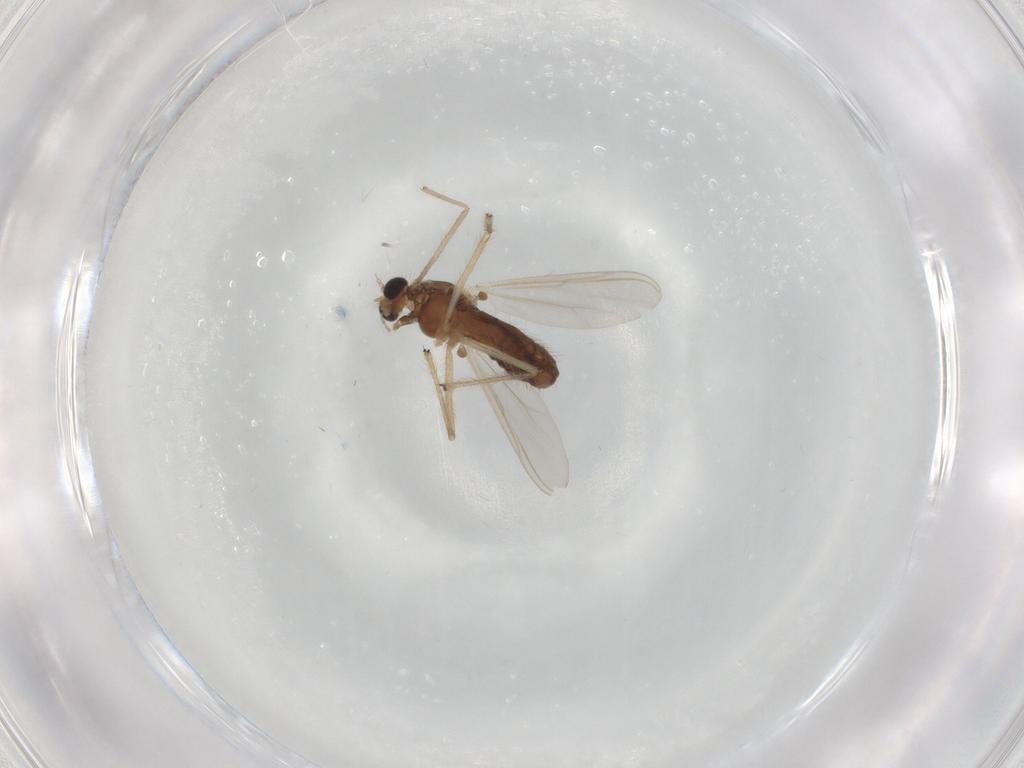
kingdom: Animalia
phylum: Arthropoda
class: Insecta
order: Diptera
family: Chironomidae
